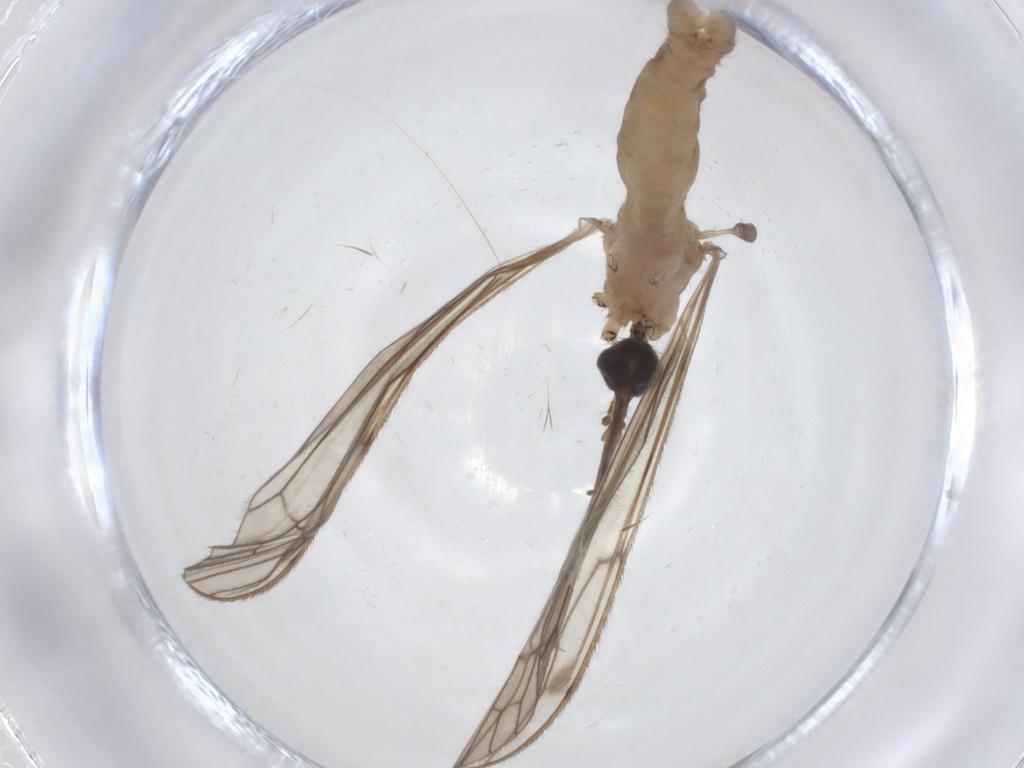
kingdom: Animalia
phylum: Arthropoda
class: Insecta
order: Diptera
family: Limoniidae
